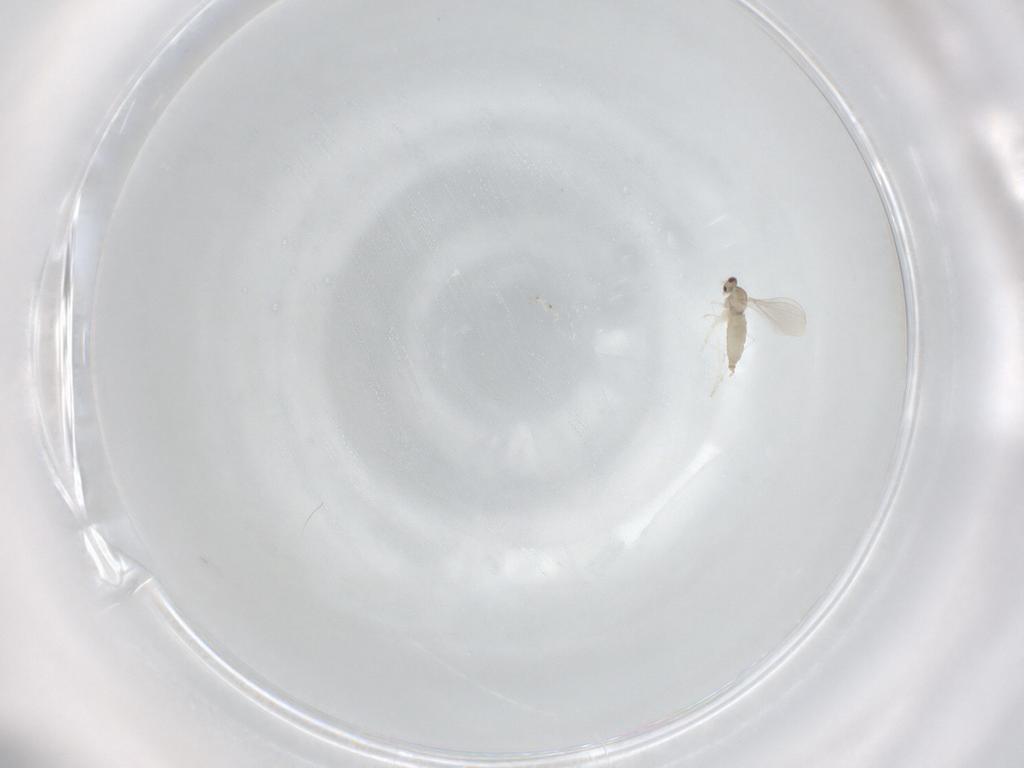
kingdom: Animalia
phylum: Arthropoda
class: Insecta
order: Diptera
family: Cecidomyiidae
